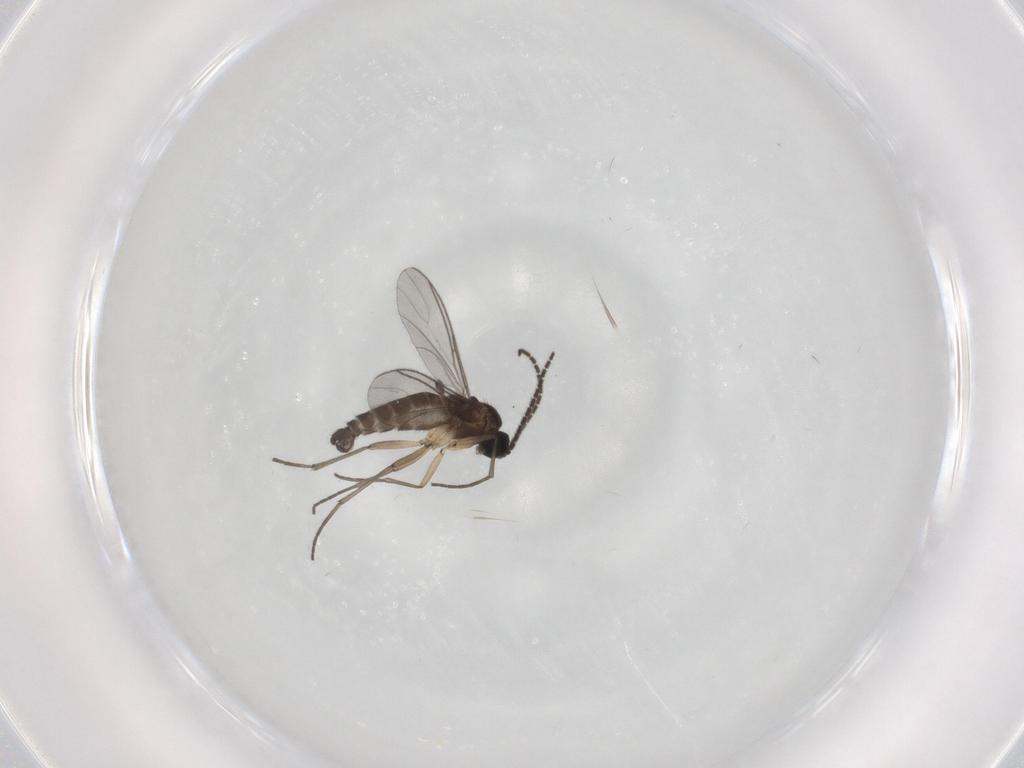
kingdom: Animalia
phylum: Arthropoda
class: Insecta
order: Diptera
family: Sciaridae
